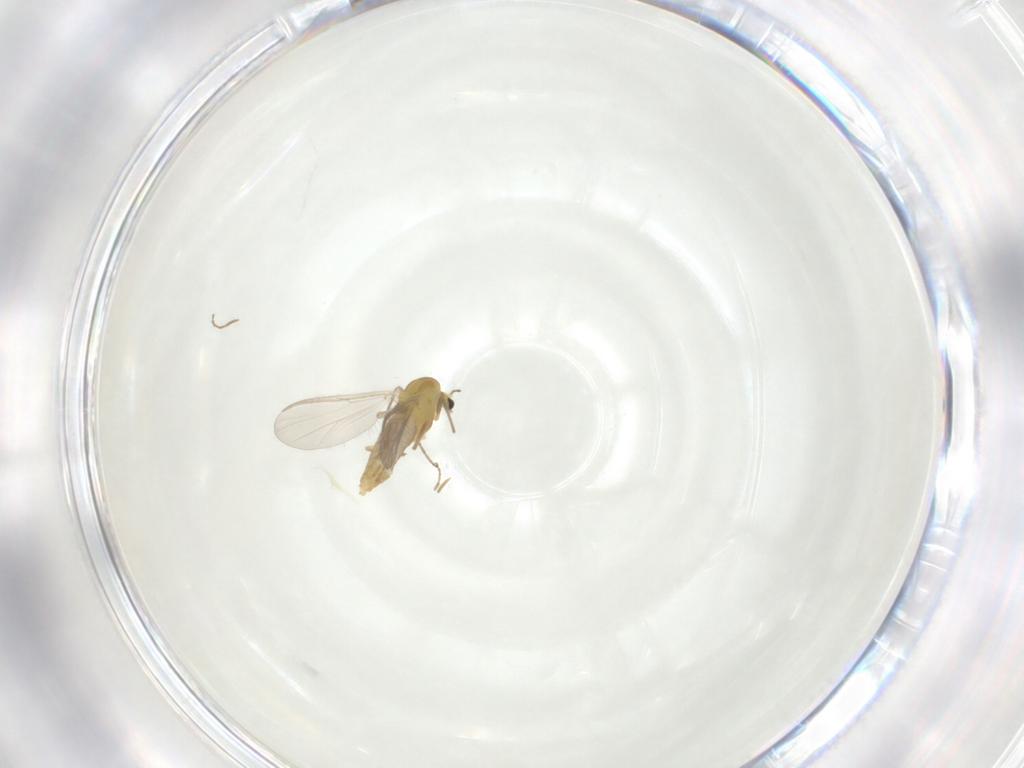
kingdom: Animalia
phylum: Arthropoda
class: Insecta
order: Diptera
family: Chironomidae
